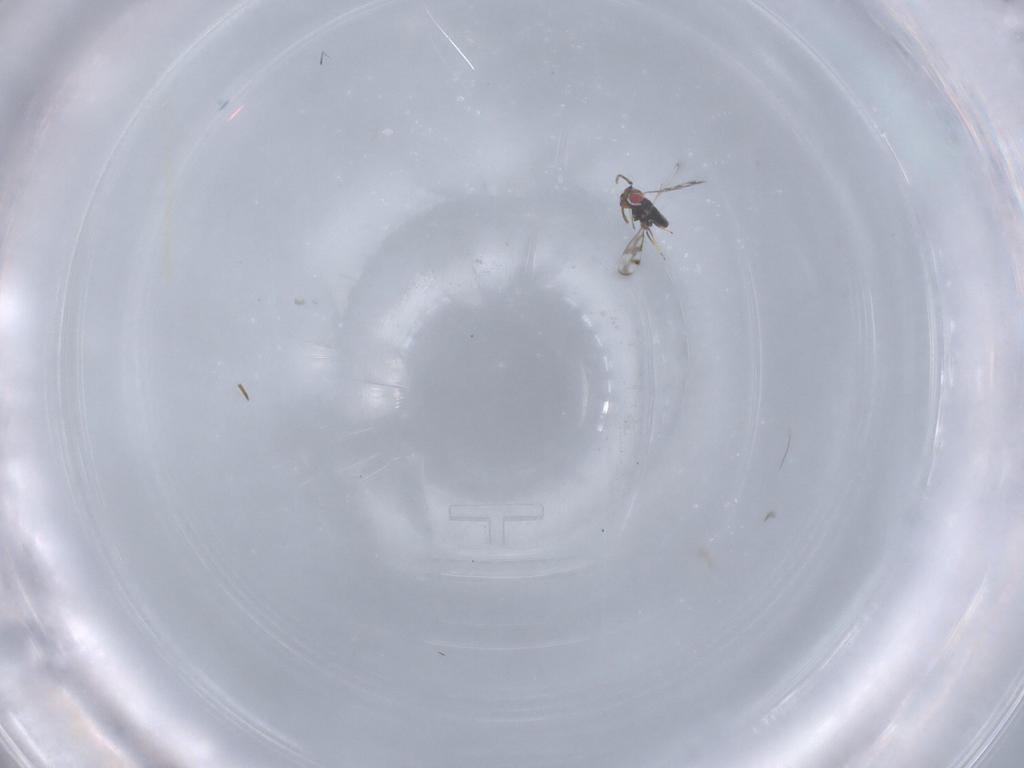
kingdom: Animalia
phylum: Arthropoda
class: Insecta
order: Hymenoptera
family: Azotidae
